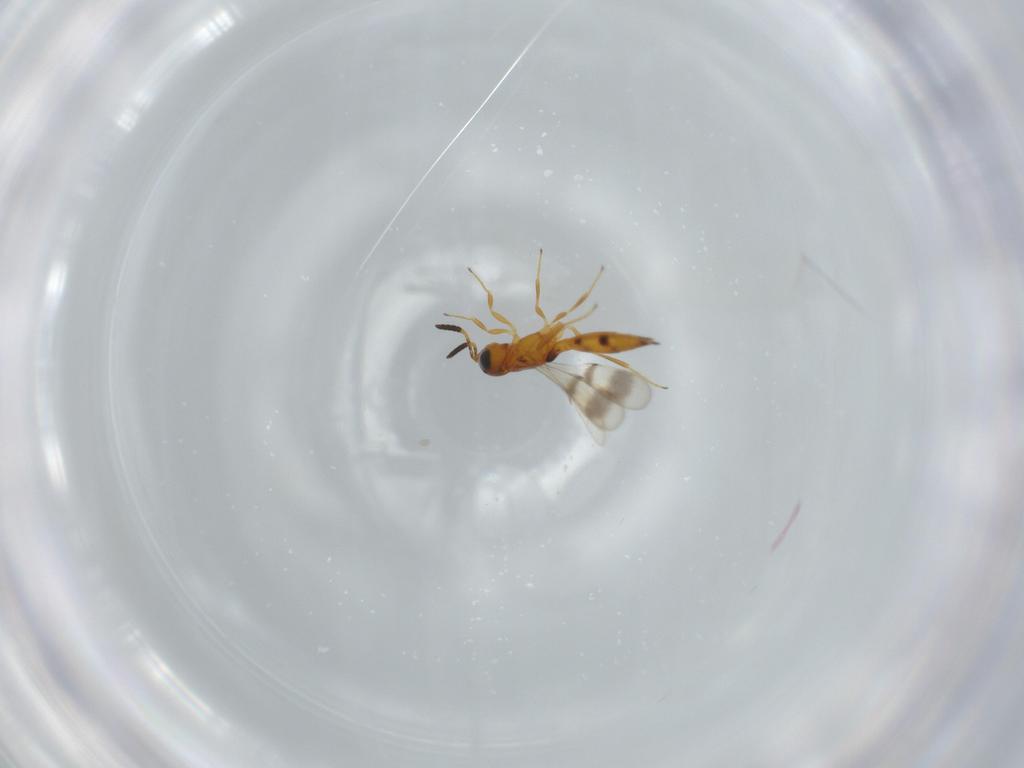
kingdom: Animalia
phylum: Arthropoda
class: Insecta
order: Hymenoptera
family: Scelionidae
